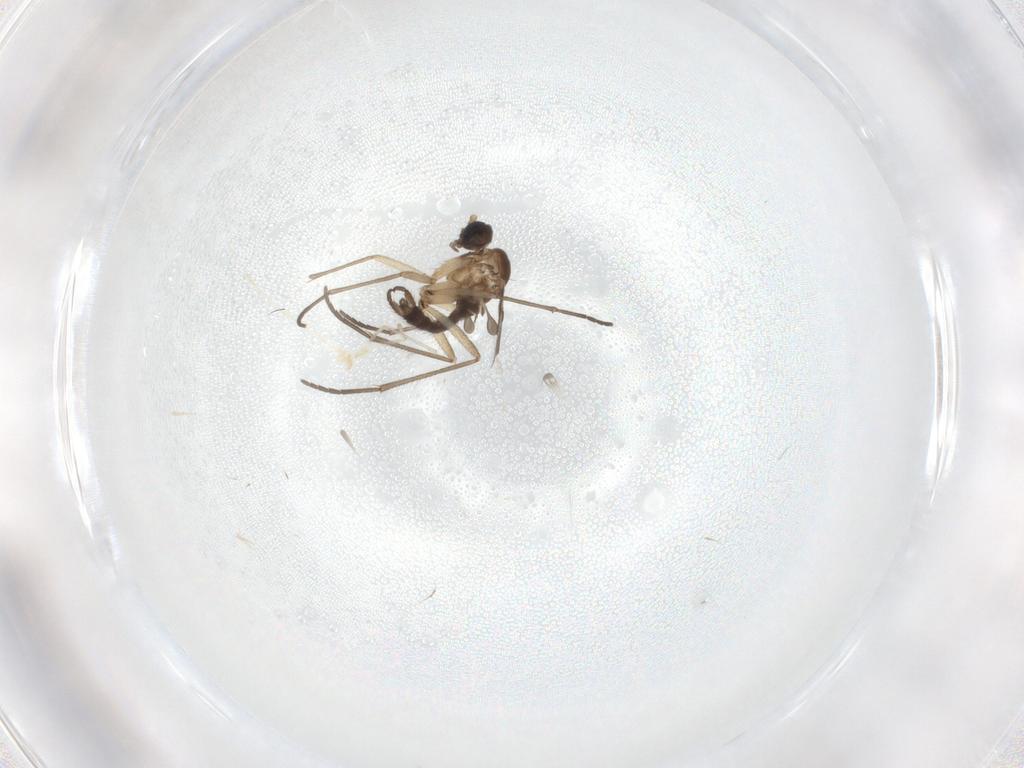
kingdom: Animalia
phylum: Arthropoda
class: Insecta
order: Diptera
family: Sciaridae
